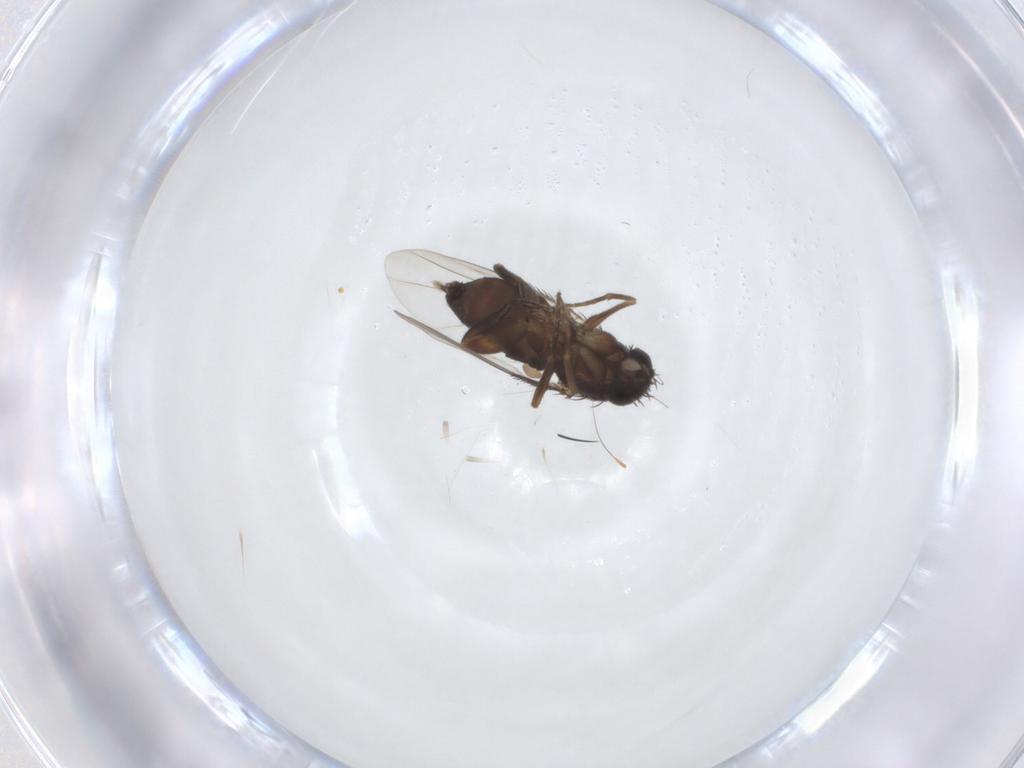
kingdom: Animalia
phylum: Arthropoda
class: Insecta
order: Diptera
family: Phoridae
